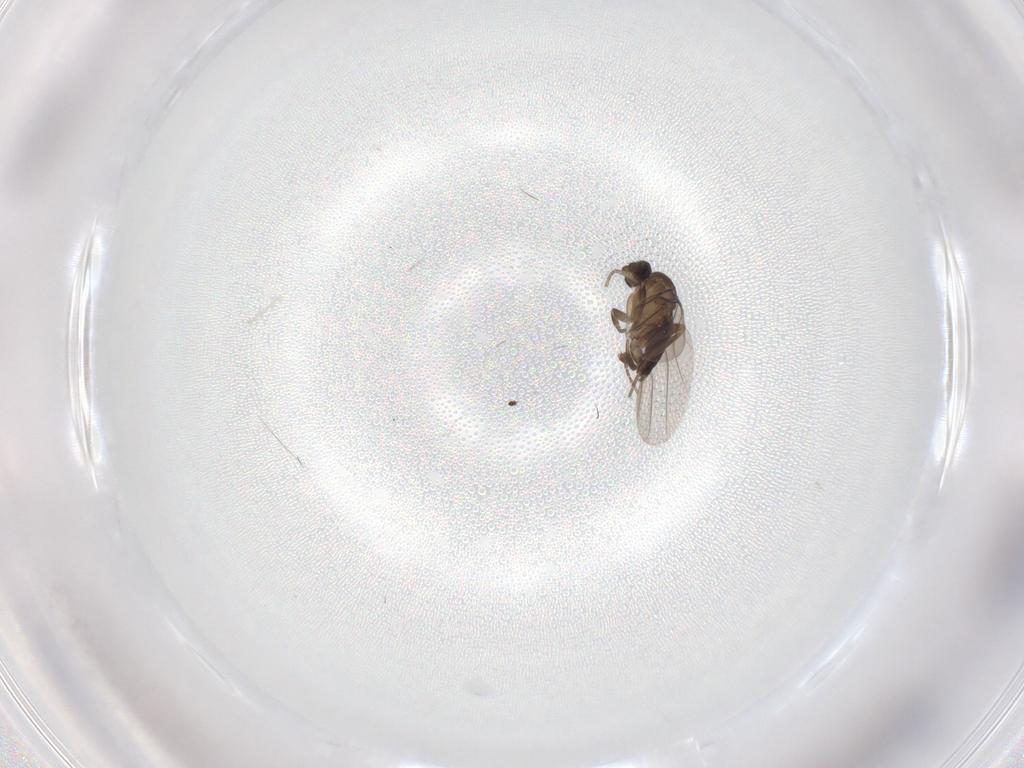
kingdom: Animalia
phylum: Arthropoda
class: Insecta
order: Diptera
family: Phoridae
